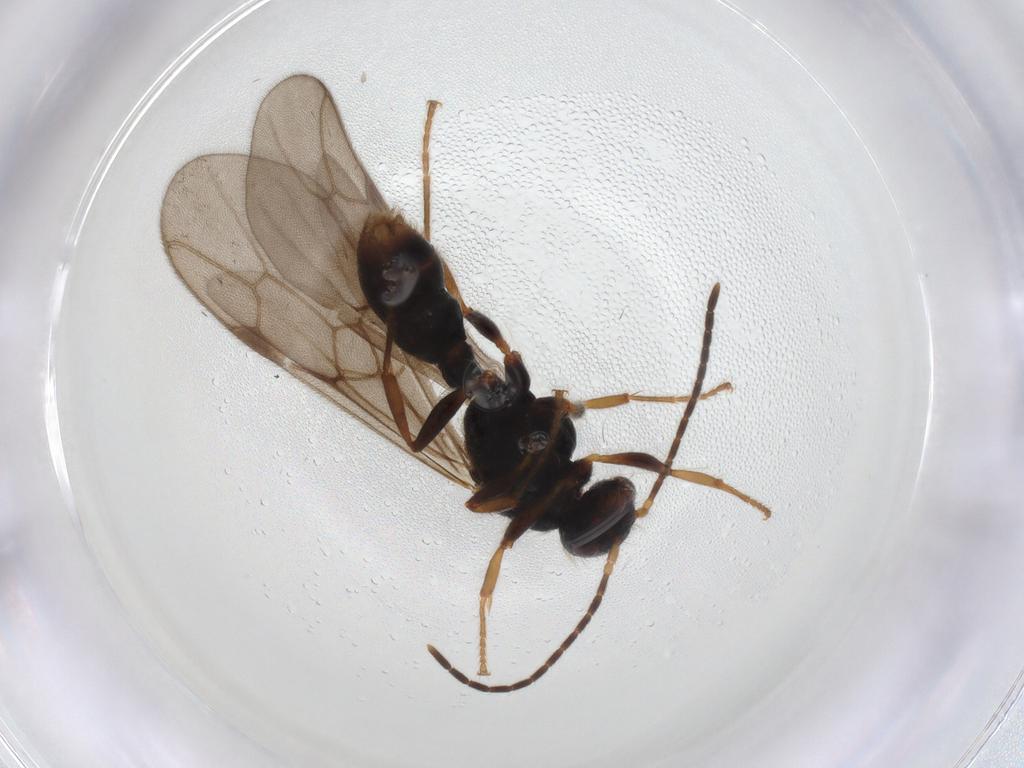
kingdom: Animalia
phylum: Arthropoda
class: Insecta
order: Hymenoptera
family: Formicidae
